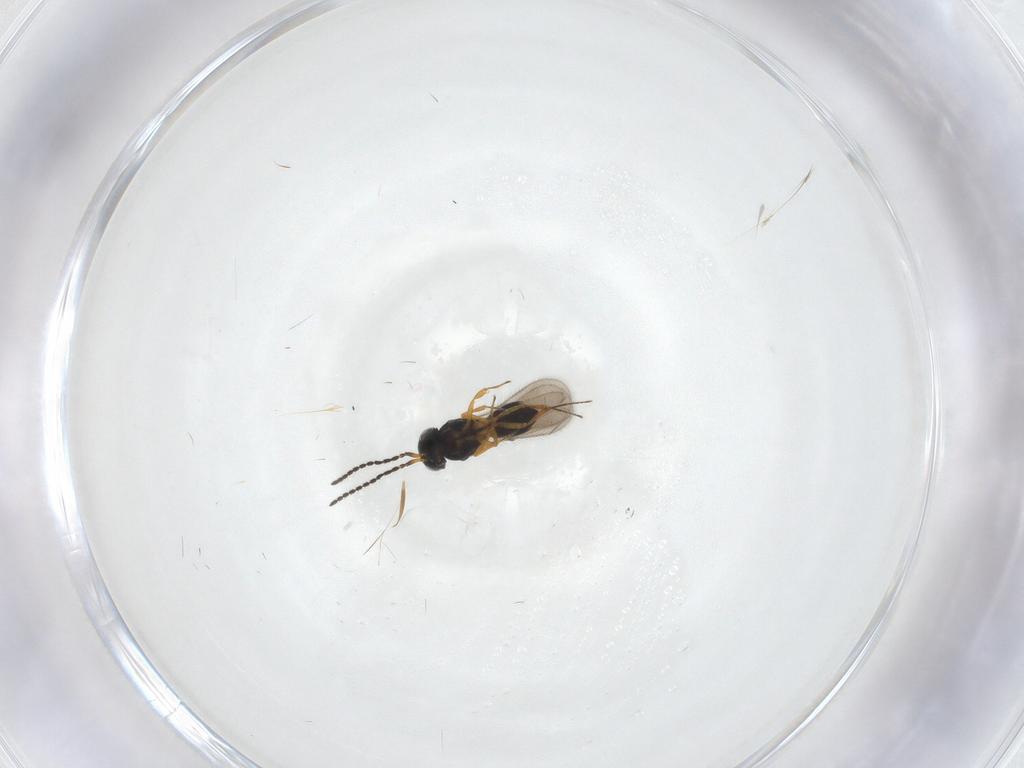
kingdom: Animalia
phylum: Arthropoda
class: Insecta
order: Hymenoptera
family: Scelionidae
